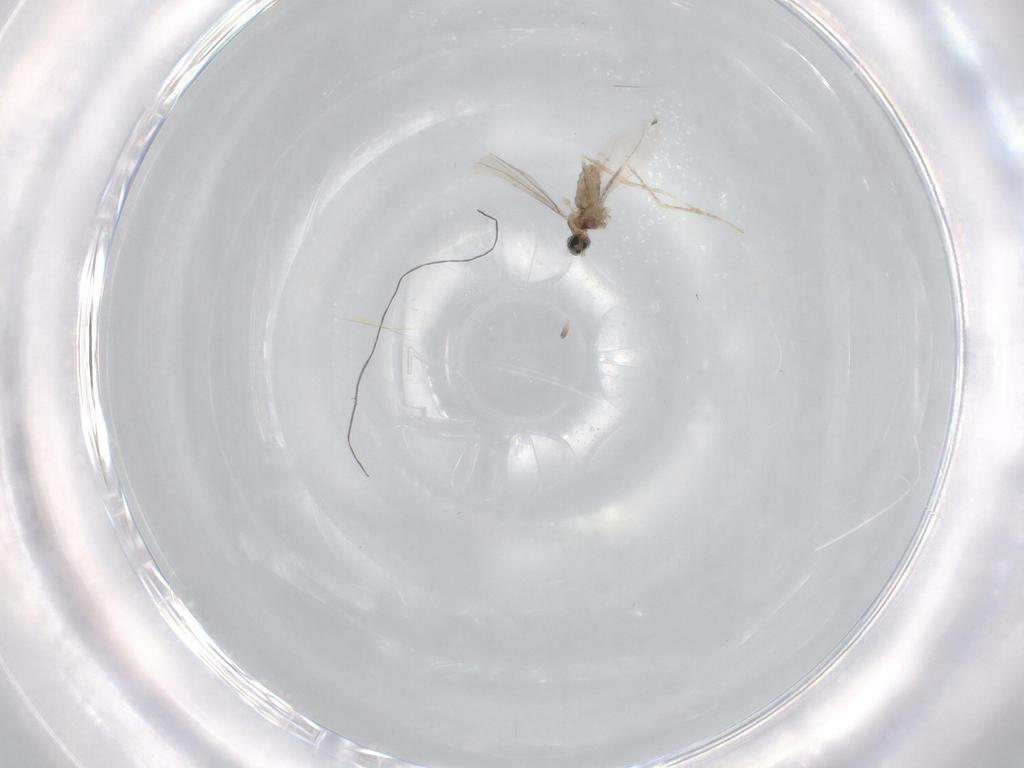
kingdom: Animalia
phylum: Arthropoda
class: Insecta
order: Diptera
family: Cecidomyiidae
